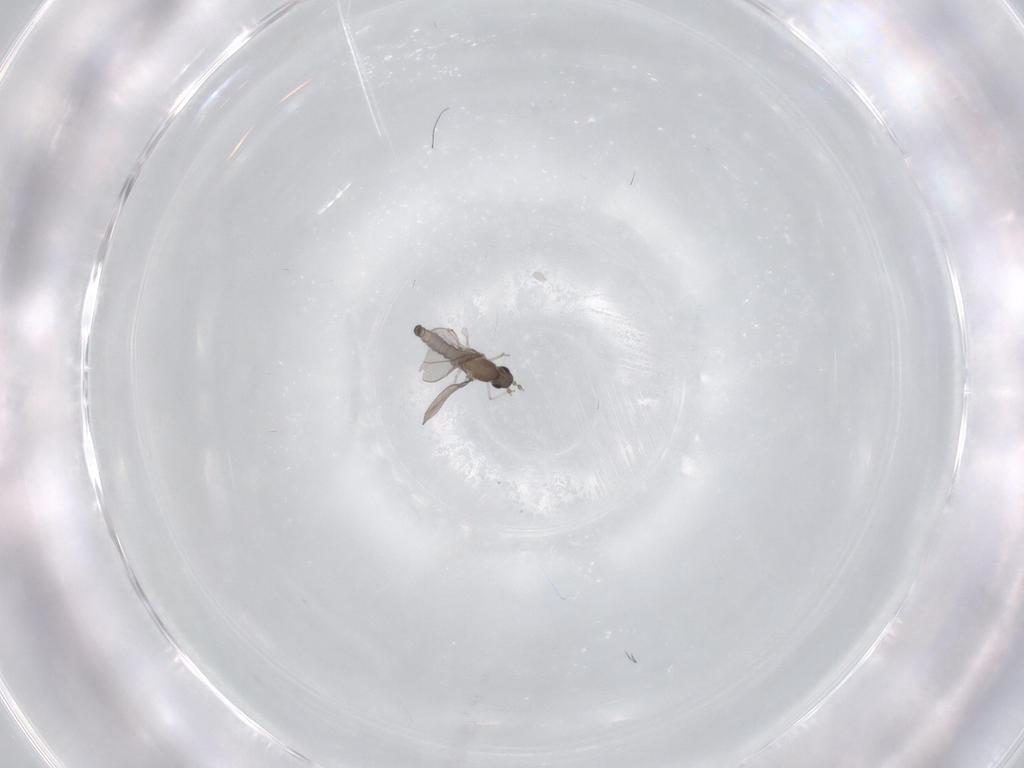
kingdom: Animalia
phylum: Arthropoda
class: Insecta
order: Diptera
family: Cecidomyiidae
